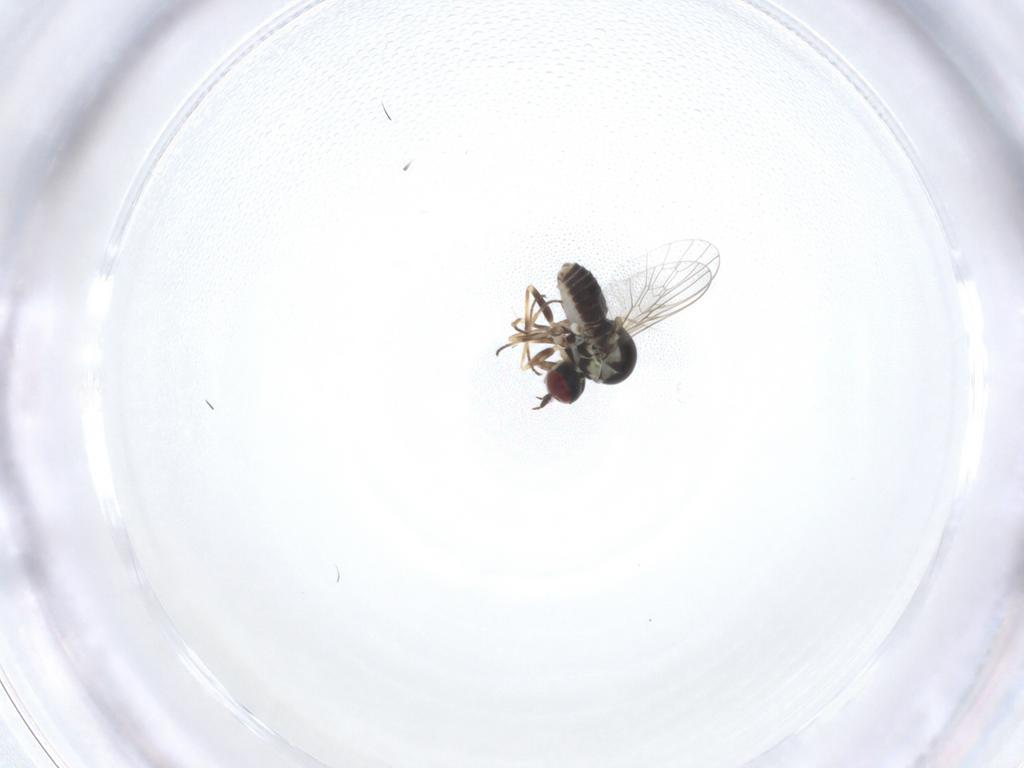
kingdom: Animalia
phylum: Arthropoda
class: Insecta
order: Diptera
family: Mythicomyiidae
